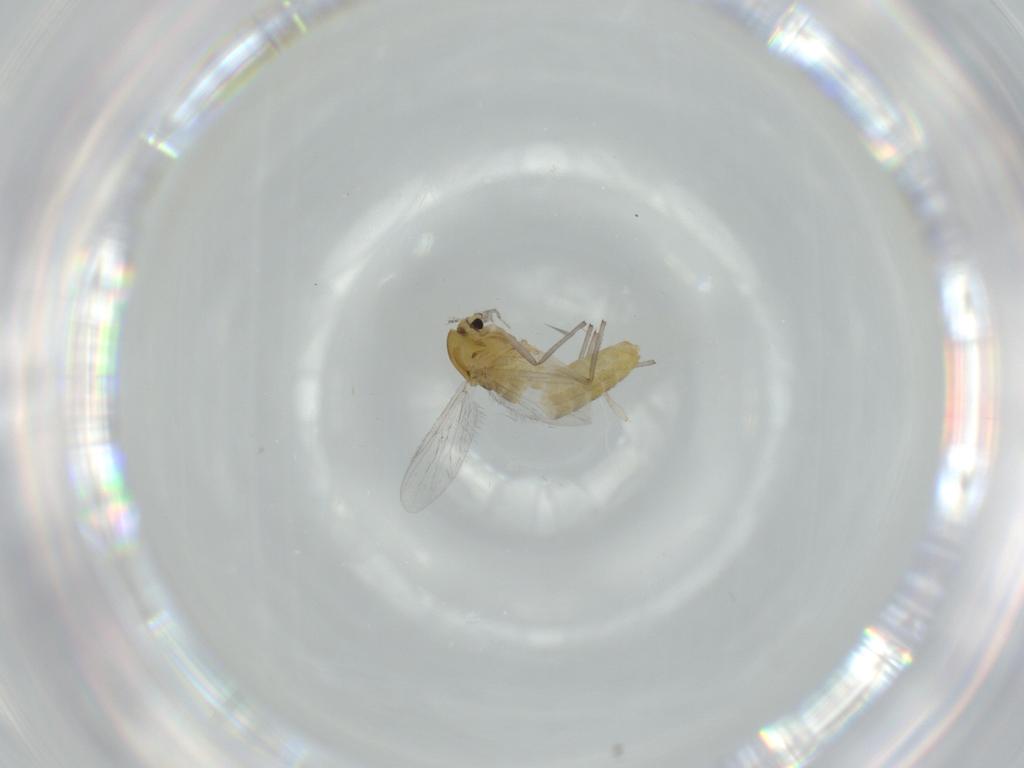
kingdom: Animalia
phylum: Arthropoda
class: Insecta
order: Diptera
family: Chironomidae
